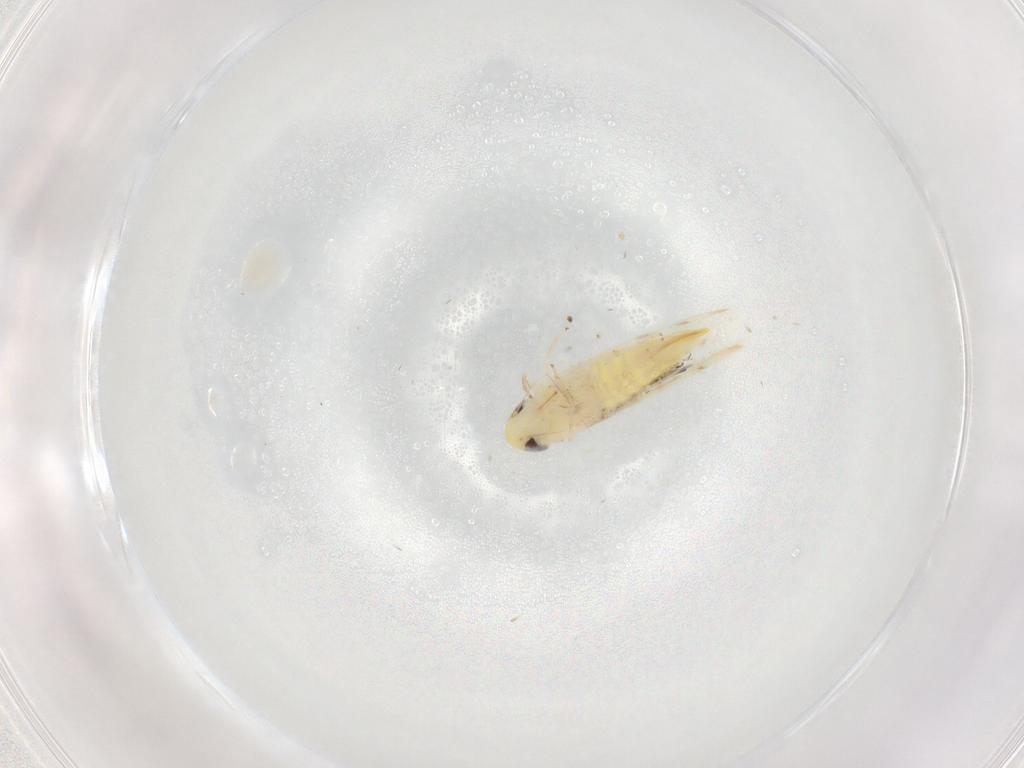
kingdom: Animalia
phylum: Arthropoda
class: Insecta
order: Hemiptera
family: Cicadellidae
